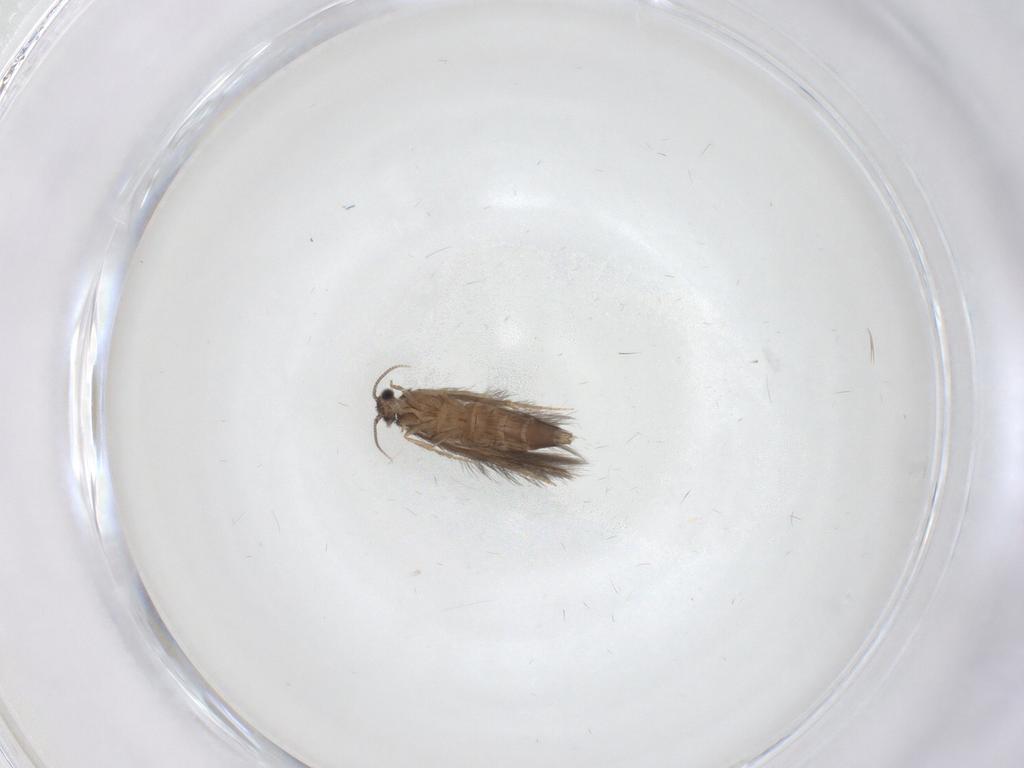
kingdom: Animalia
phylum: Arthropoda
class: Insecta
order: Trichoptera
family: Hydroptilidae
